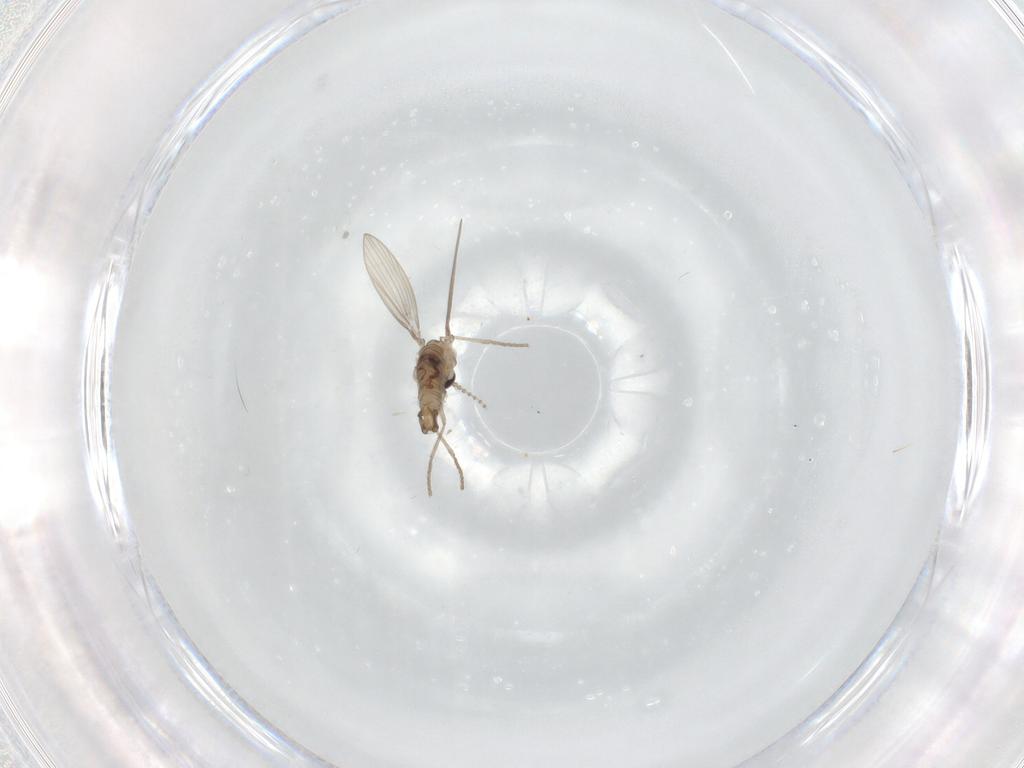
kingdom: Animalia
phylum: Arthropoda
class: Insecta
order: Diptera
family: Psychodidae
